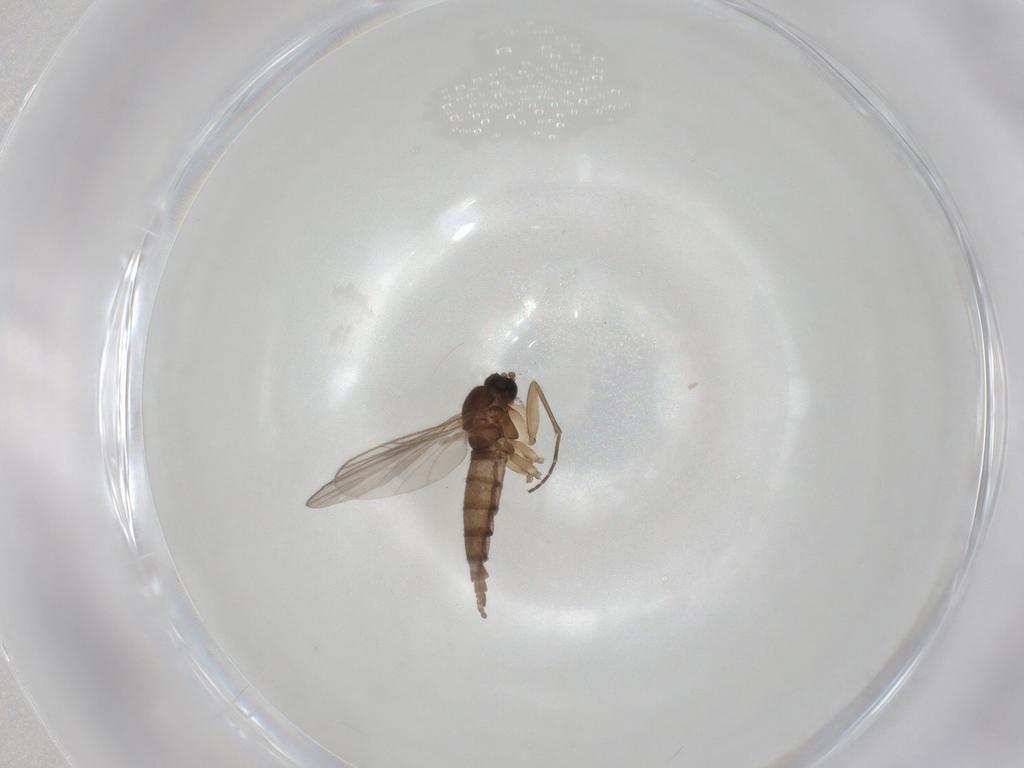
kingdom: Animalia
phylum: Arthropoda
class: Insecta
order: Diptera
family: Sciaridae
